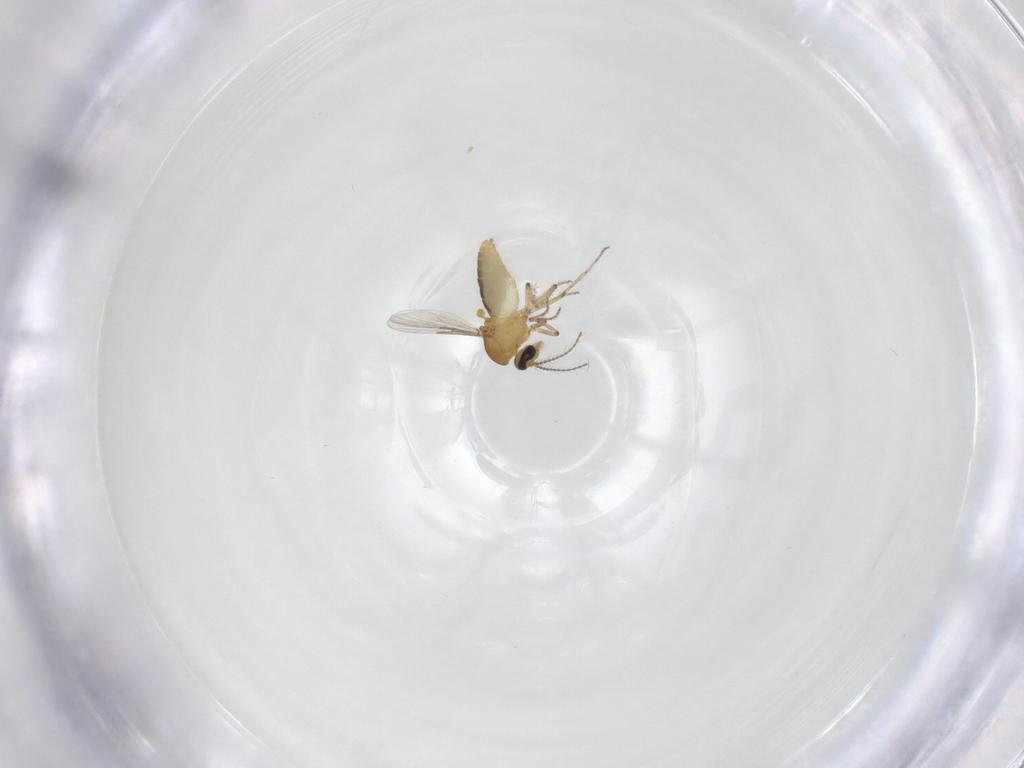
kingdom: Animalia
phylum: Arthropoda
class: Insecta
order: Diptera
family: Ceratopogonidae
